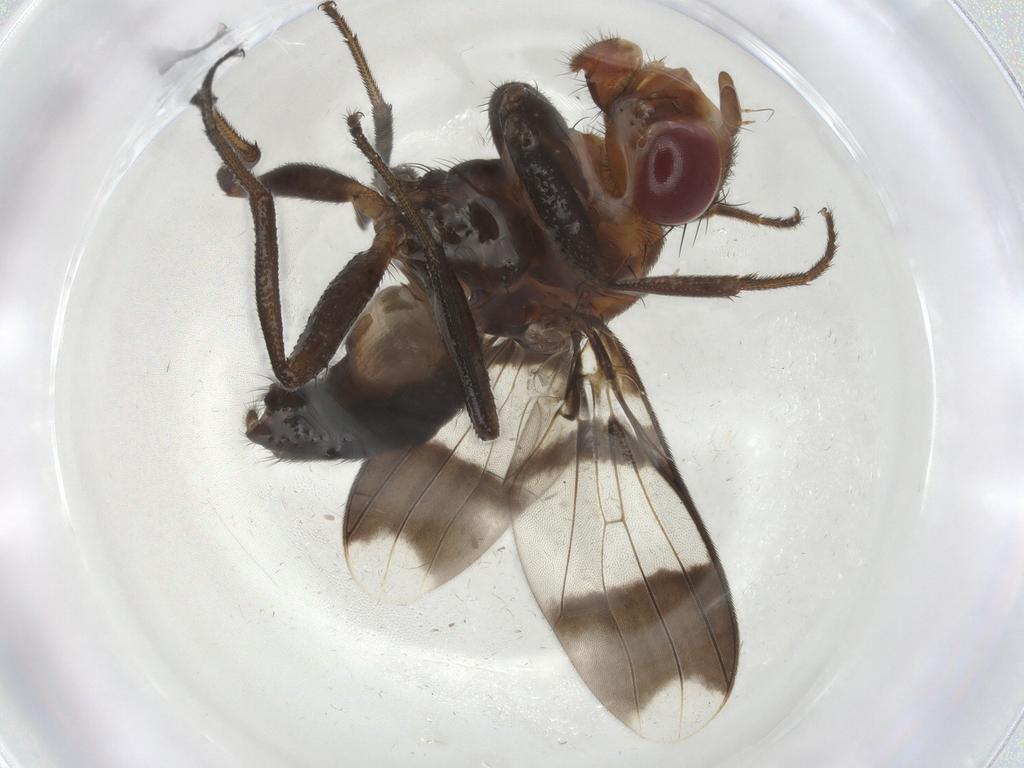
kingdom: Animalia
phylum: Arthropoda
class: Insecta
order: Diptera
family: Richardiidae
